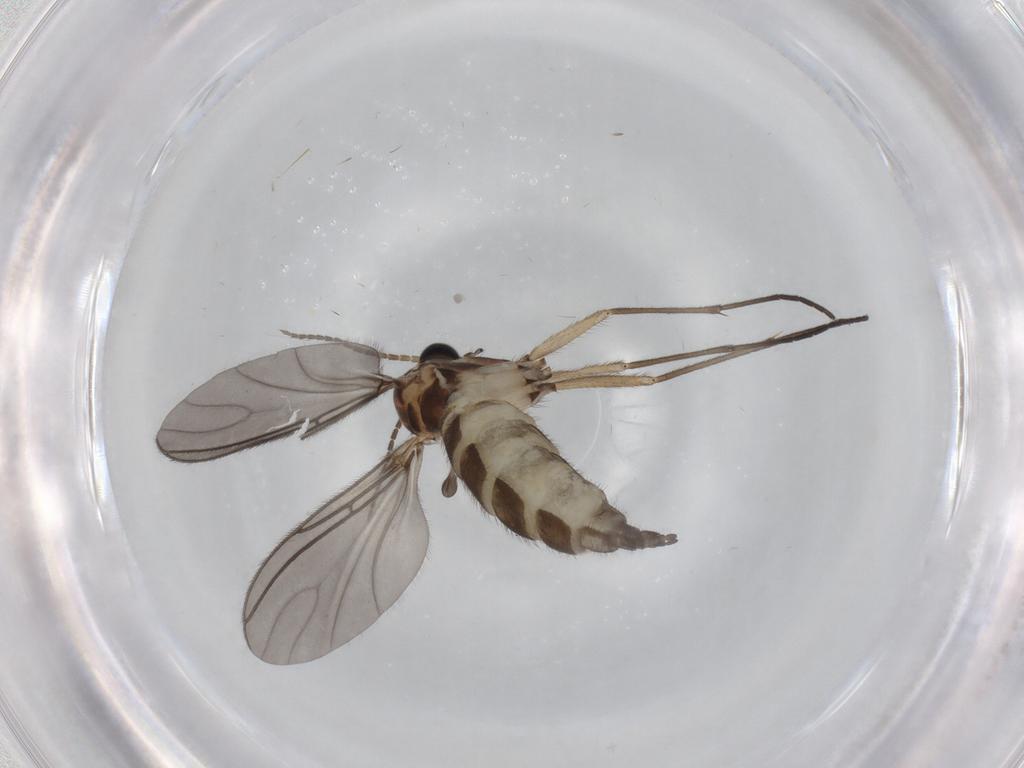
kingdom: Animalia
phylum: Arthropoda
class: Insecta
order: Diptera
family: Sciaridae
